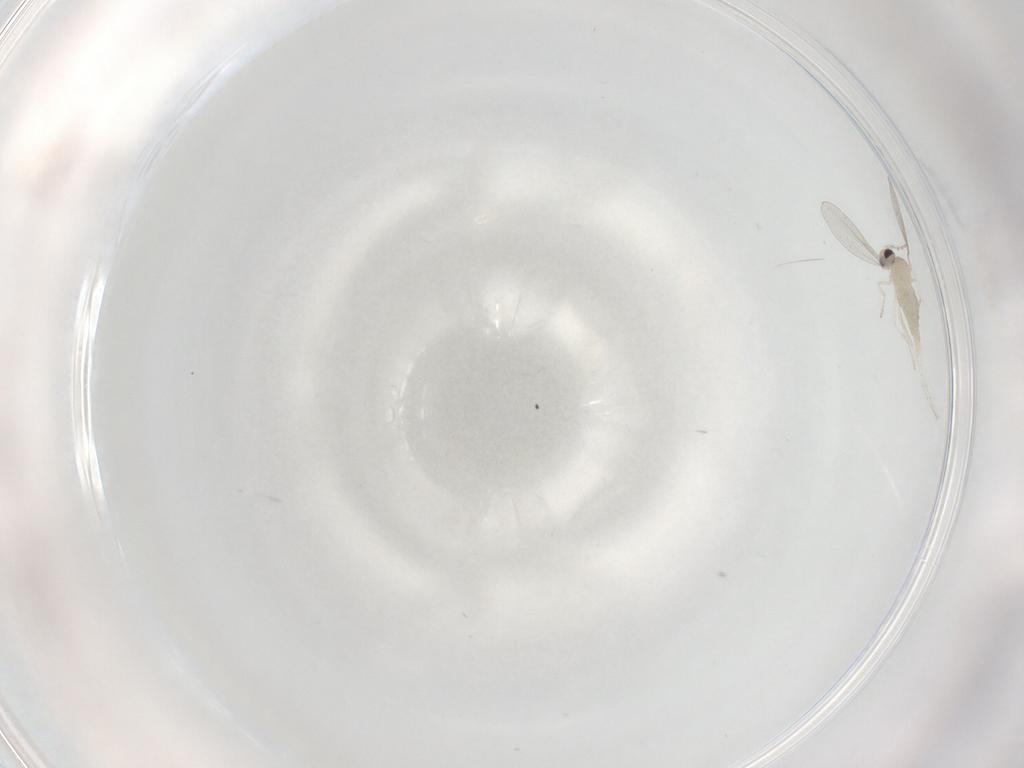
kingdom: Animalia
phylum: Arthropoda
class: Insecta
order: Diptera
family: Cecidomyiidae
